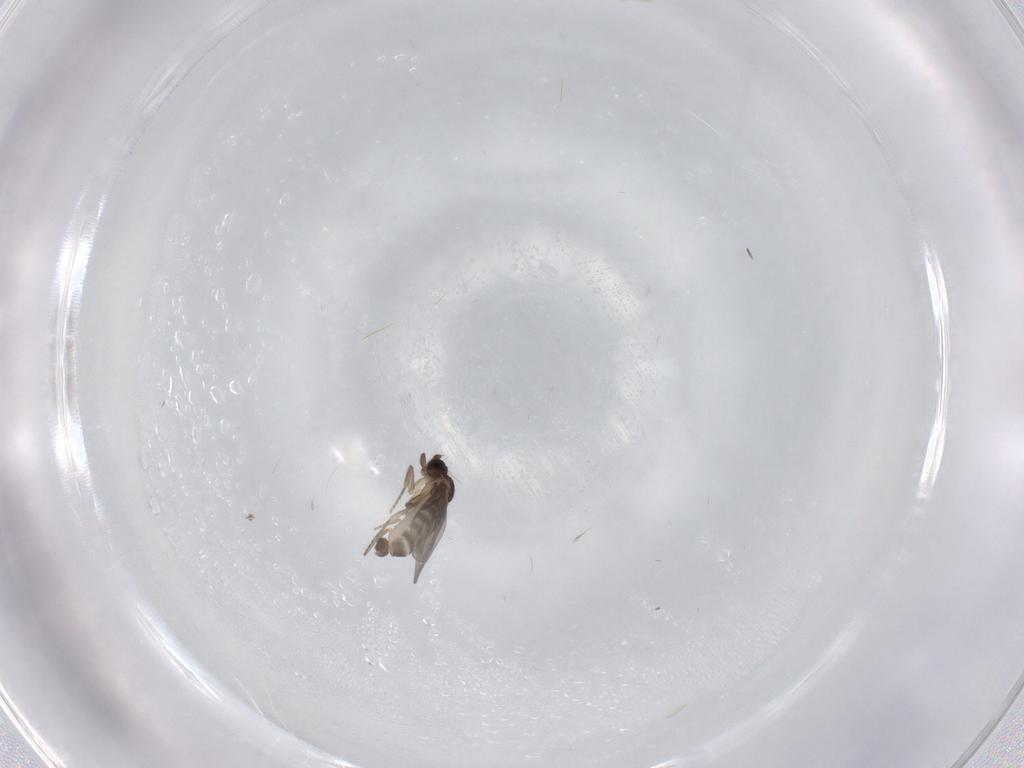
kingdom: Animalia
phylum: Arthropoda
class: Insecta
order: Diptera
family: Phoridae
